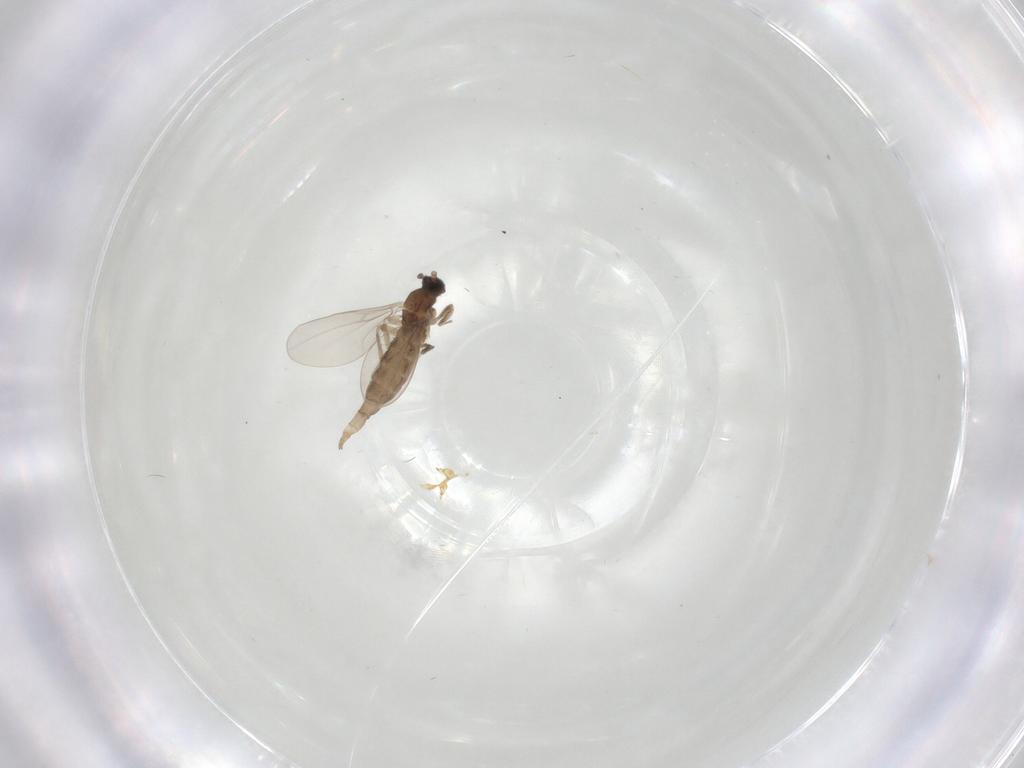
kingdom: Animalia
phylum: Arthropoda
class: Insecta
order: Diptera
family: Cecidomyiidae
